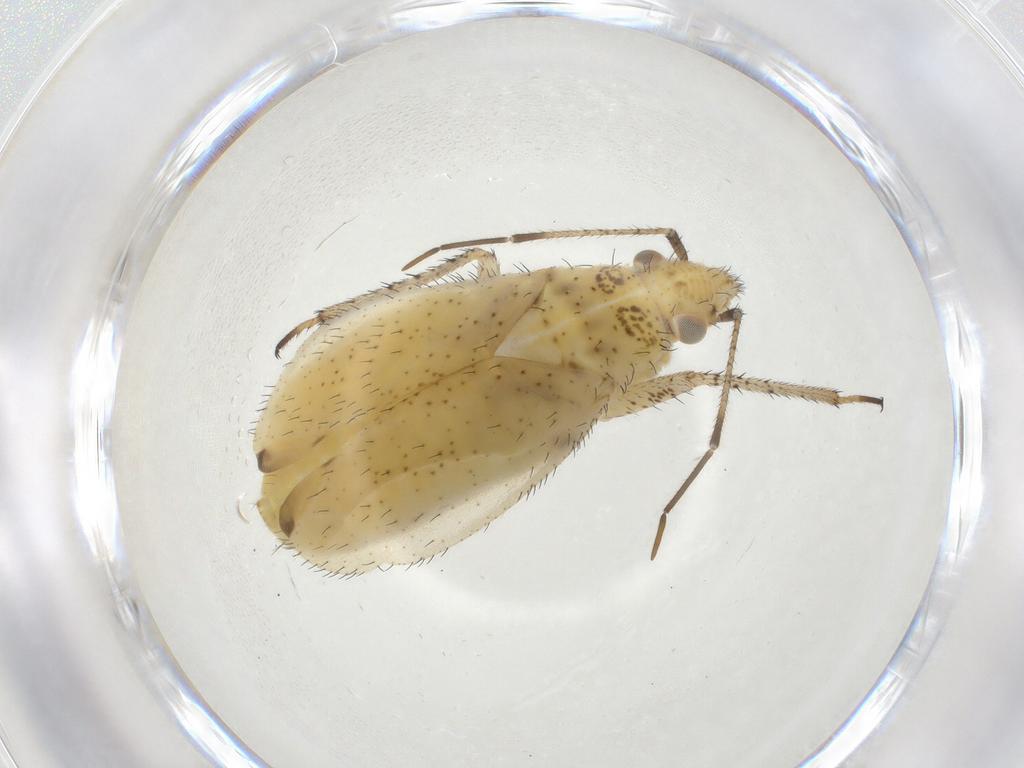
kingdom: Animalia
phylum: Arthropoda
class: Insecta
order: Hemiptera
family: Miridae
